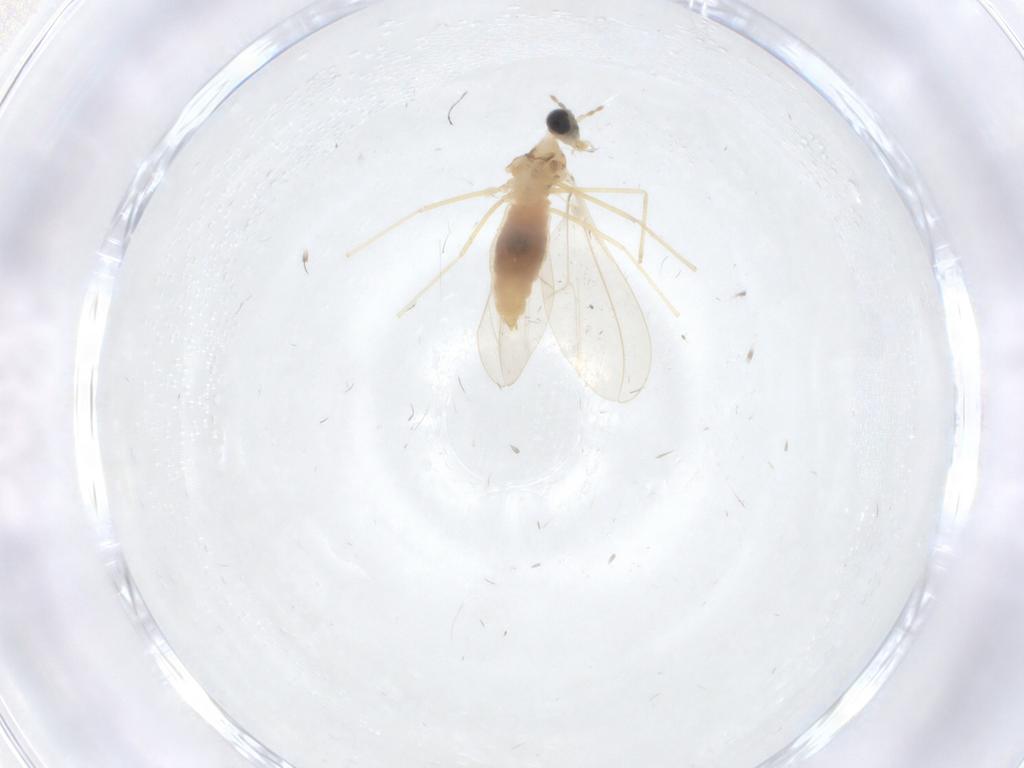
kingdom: Animalia
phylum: Arthropoda
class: Insecta
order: Diptera
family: Cecidomyiidae
